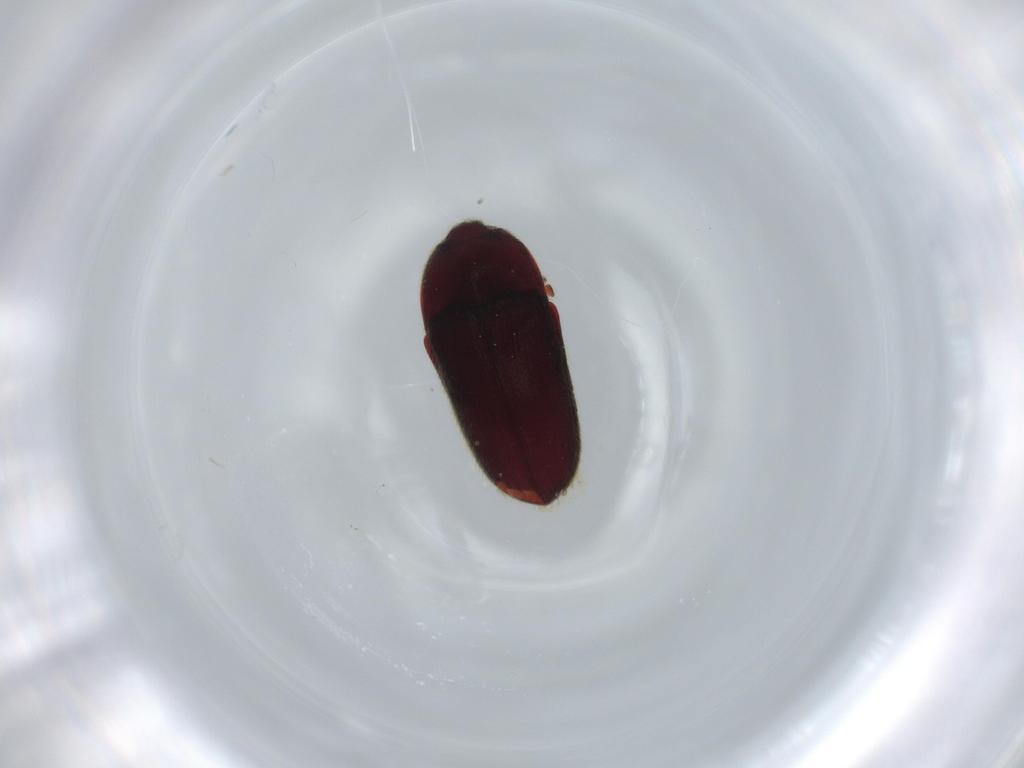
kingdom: Animalia
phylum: Arthropoda
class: Insecta
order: Coleoptera
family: Throscidae
